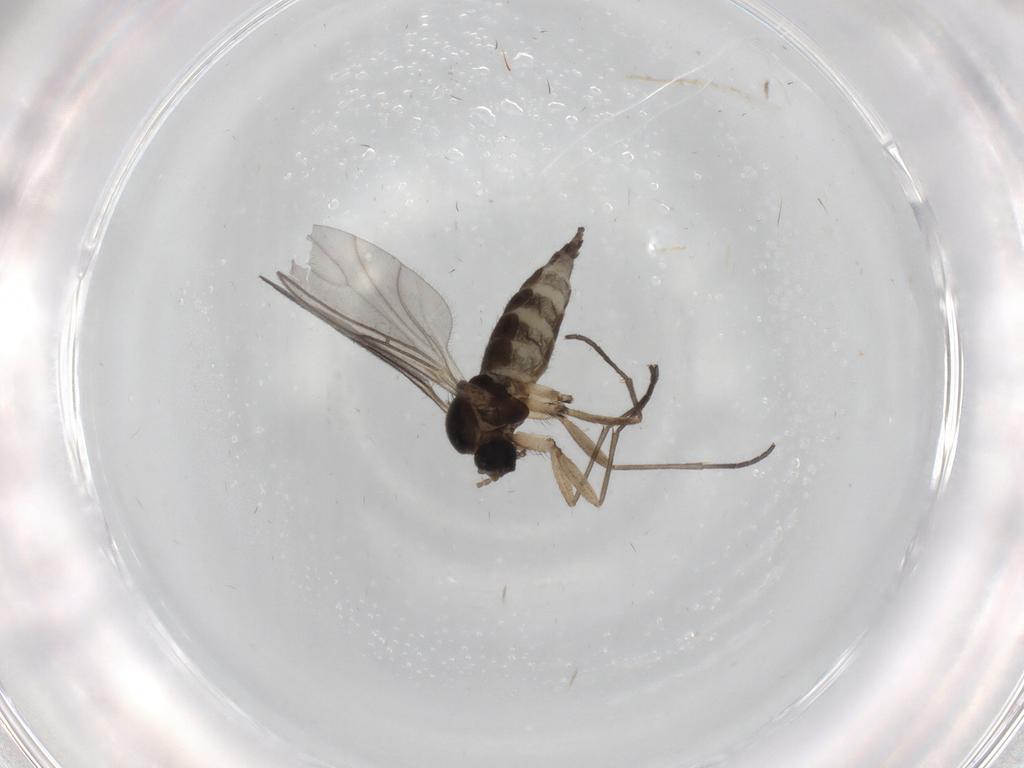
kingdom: Animalia
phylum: Arthropoda
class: Insecta
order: Diptera
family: Sciaridae
